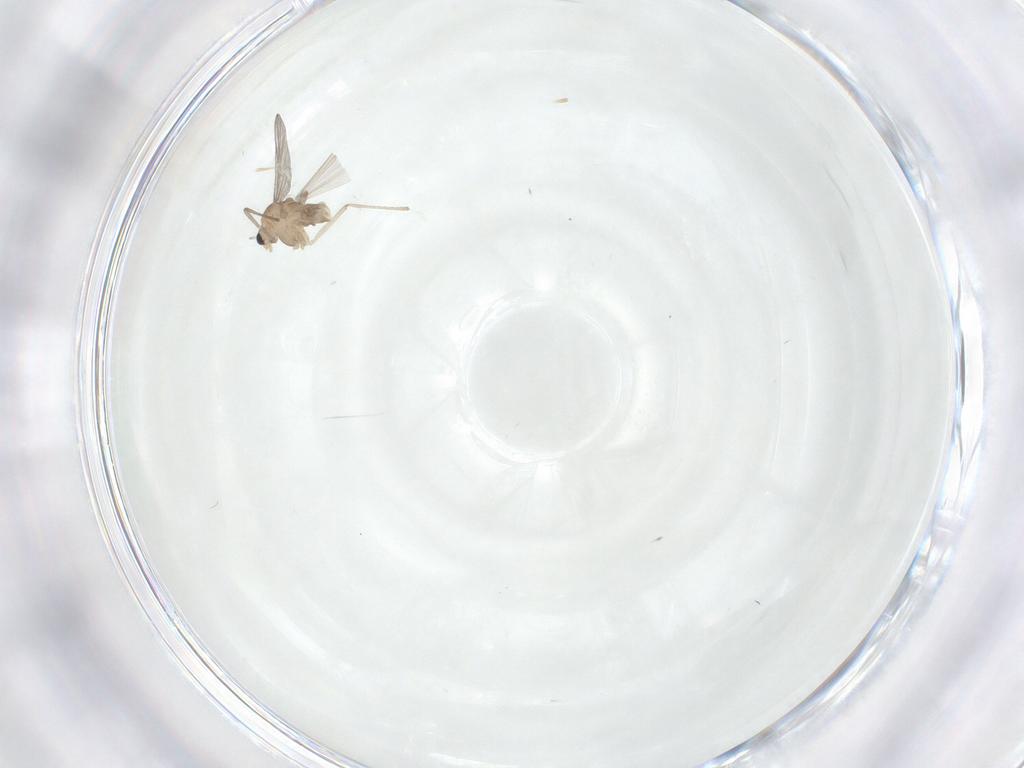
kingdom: Animalia
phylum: Arthropoda
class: Insecta
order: Diptera
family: Chironomidae
